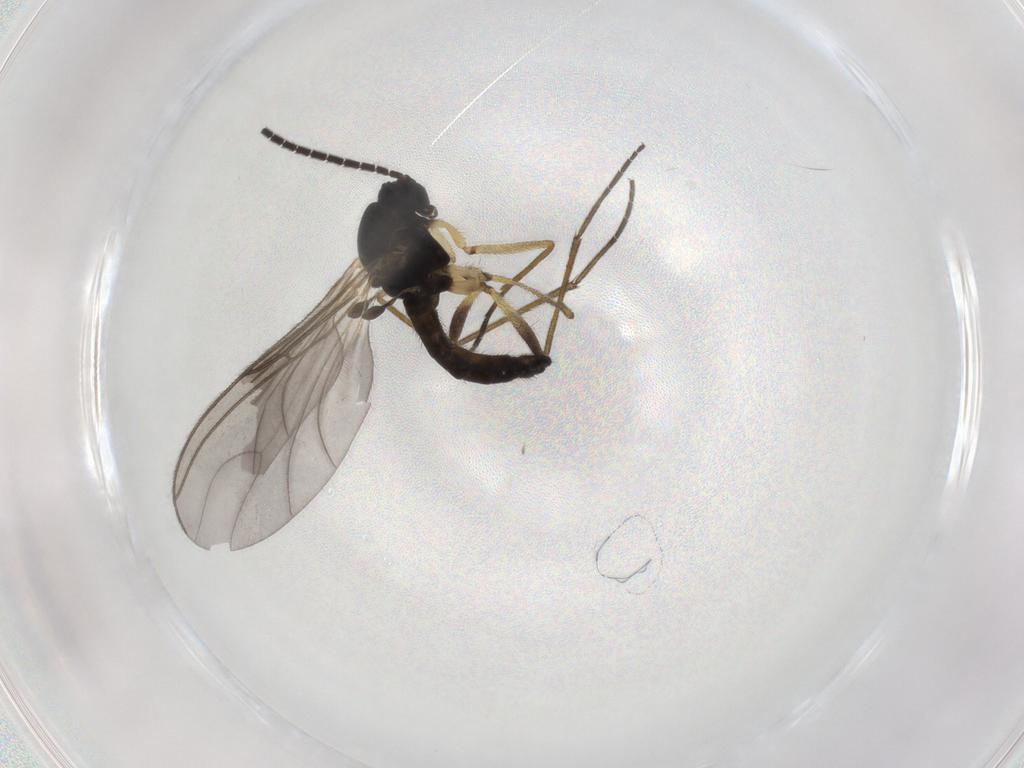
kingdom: Animalia
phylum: Arthropoda
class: Insecta
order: Diptera
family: Sciaridae
